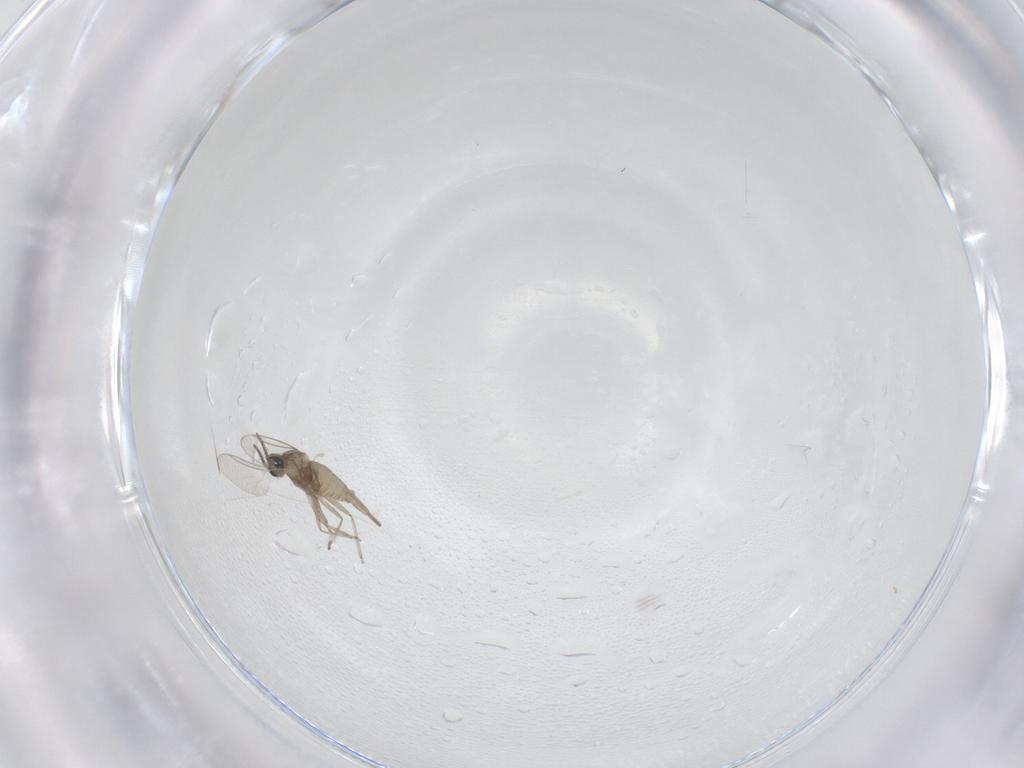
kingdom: Animalia
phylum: Arthropoda
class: Insecta
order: Diptera
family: Cecidomyiidae
